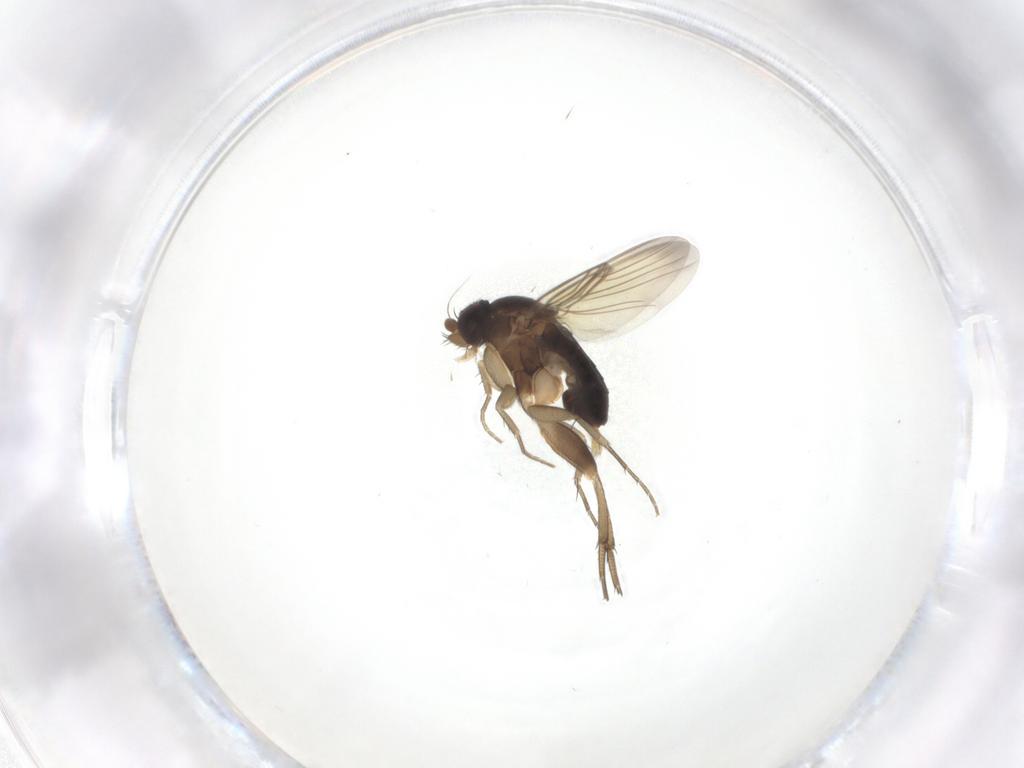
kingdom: Animalia
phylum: Arthropoda
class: Insecta
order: Diptera
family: Phoridae
